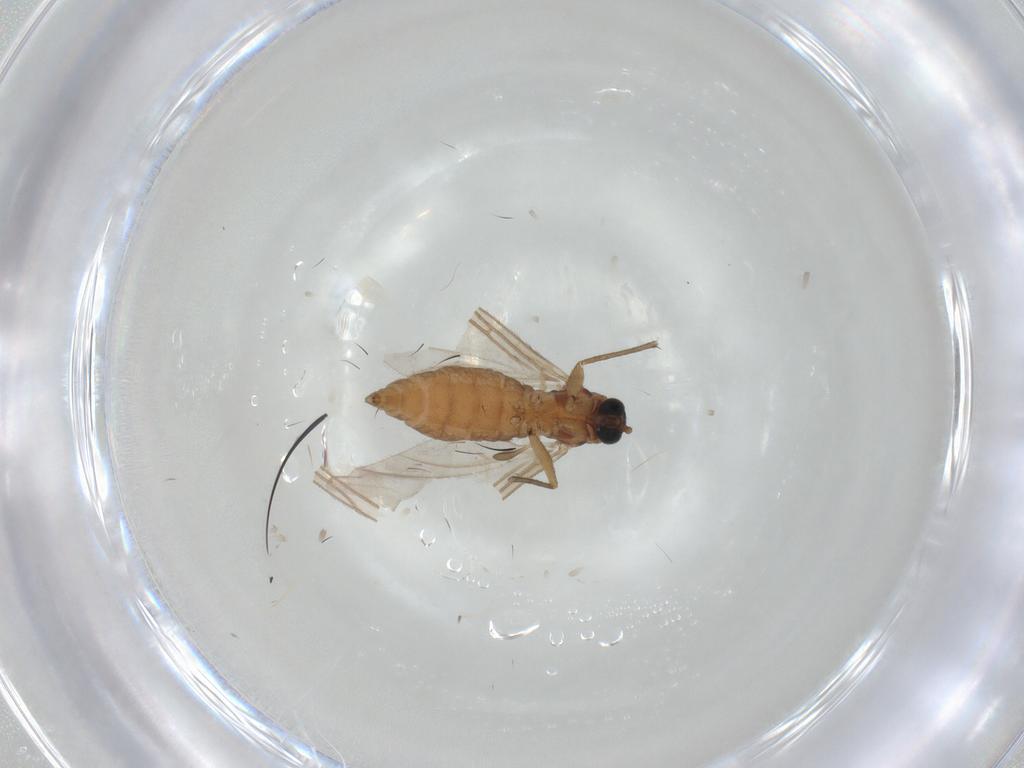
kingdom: Animalia
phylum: Arthropoda
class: Insecta
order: Diptera
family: Sciaridae
